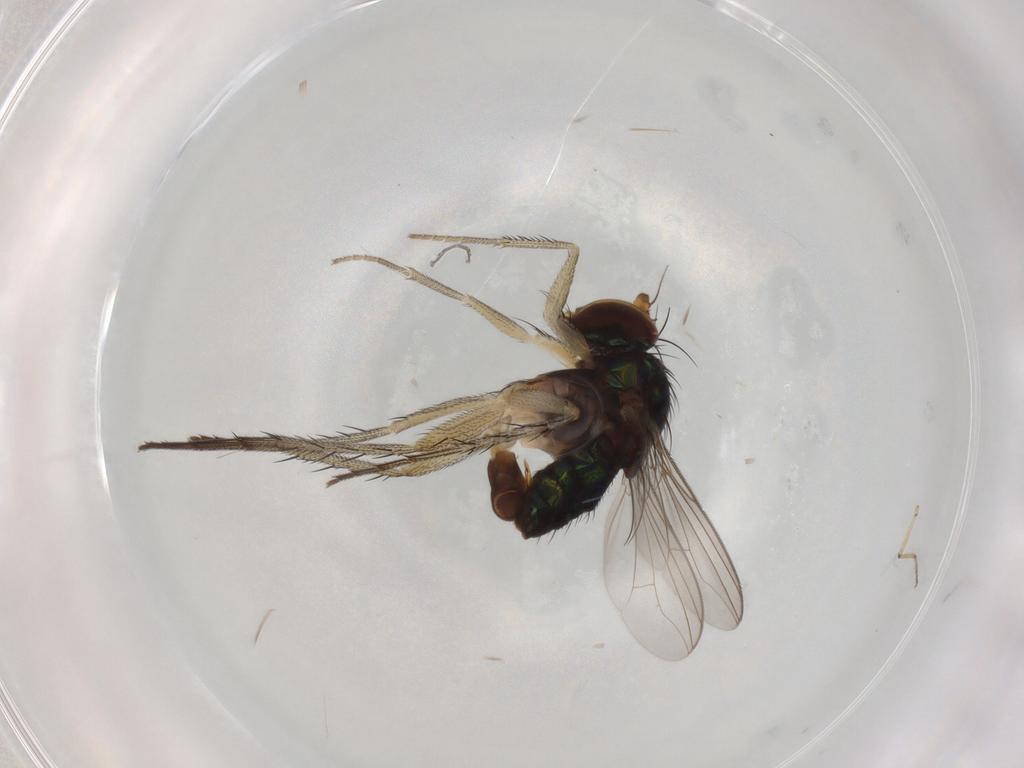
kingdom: Animalia
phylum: Arthropoda
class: Insecta
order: Diptera
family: Dolichopodidae
